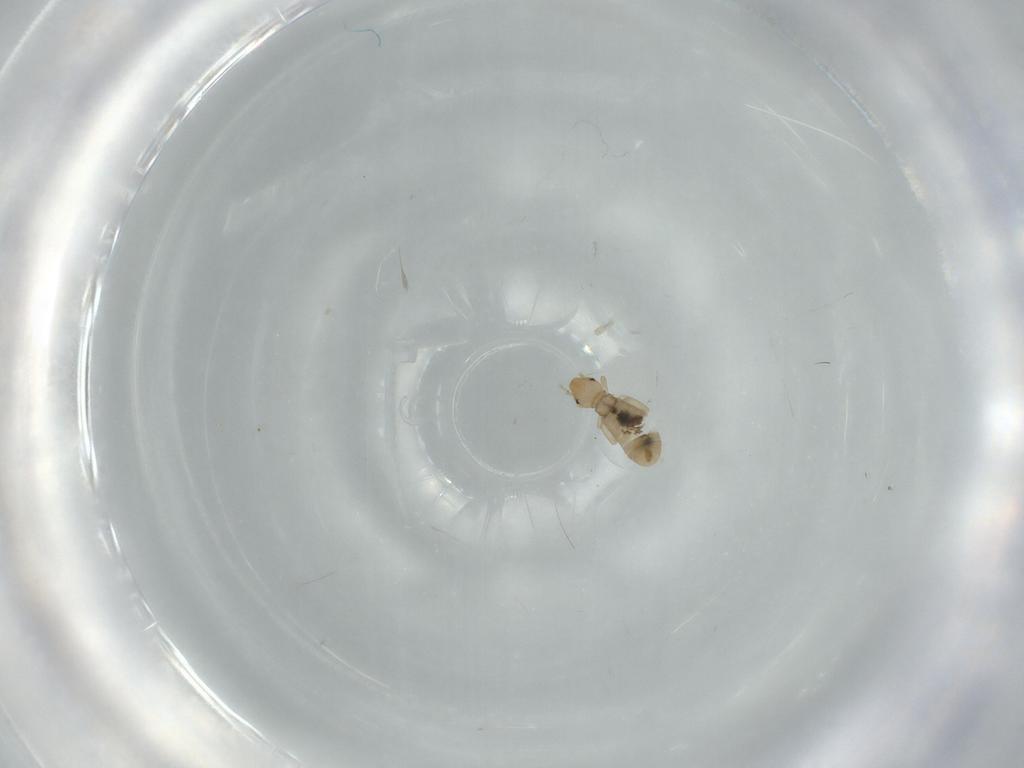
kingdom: Animalia
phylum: Arthropoda
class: Insecta
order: Psocodea
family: Liposcelididae
